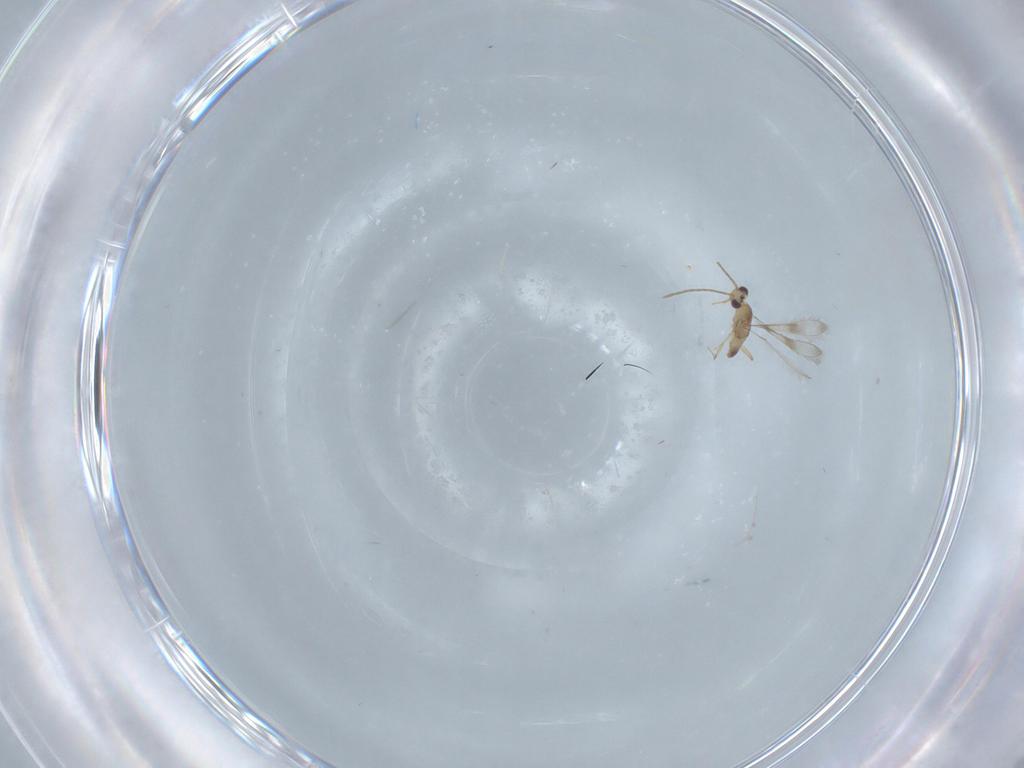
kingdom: Animalia
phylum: Arthropoda
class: Insecta
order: Hymenoptera
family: Mymaridae
